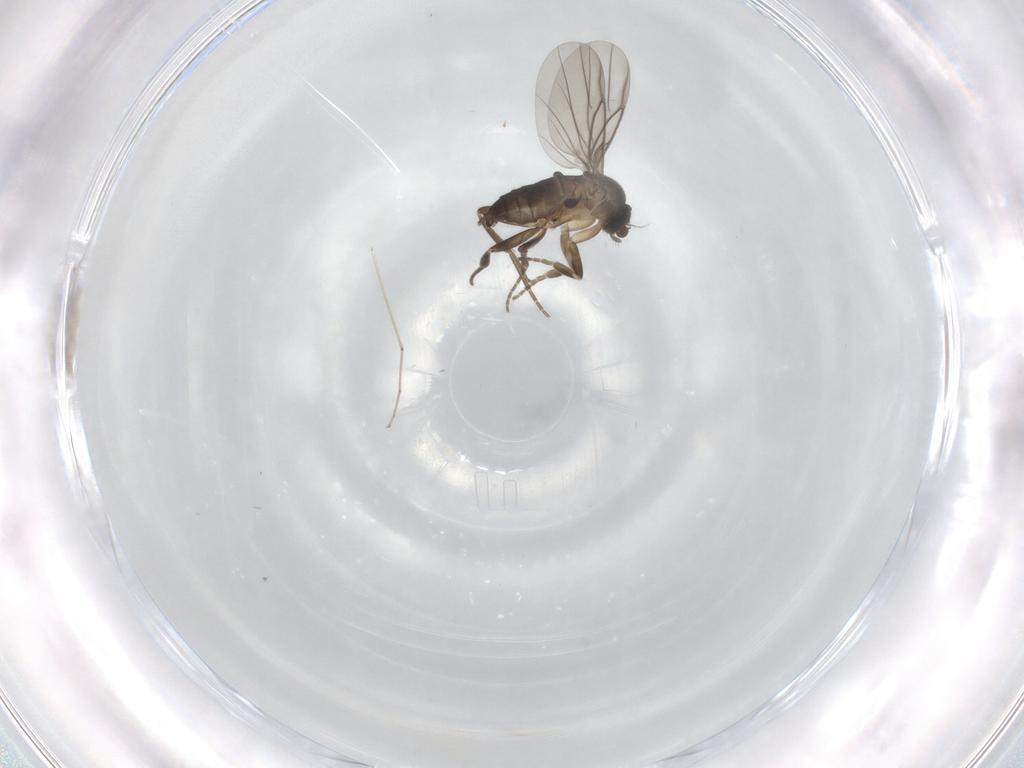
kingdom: Animalia
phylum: Arthropoda
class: Insecta
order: Diptera
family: Cecidomyiidae
